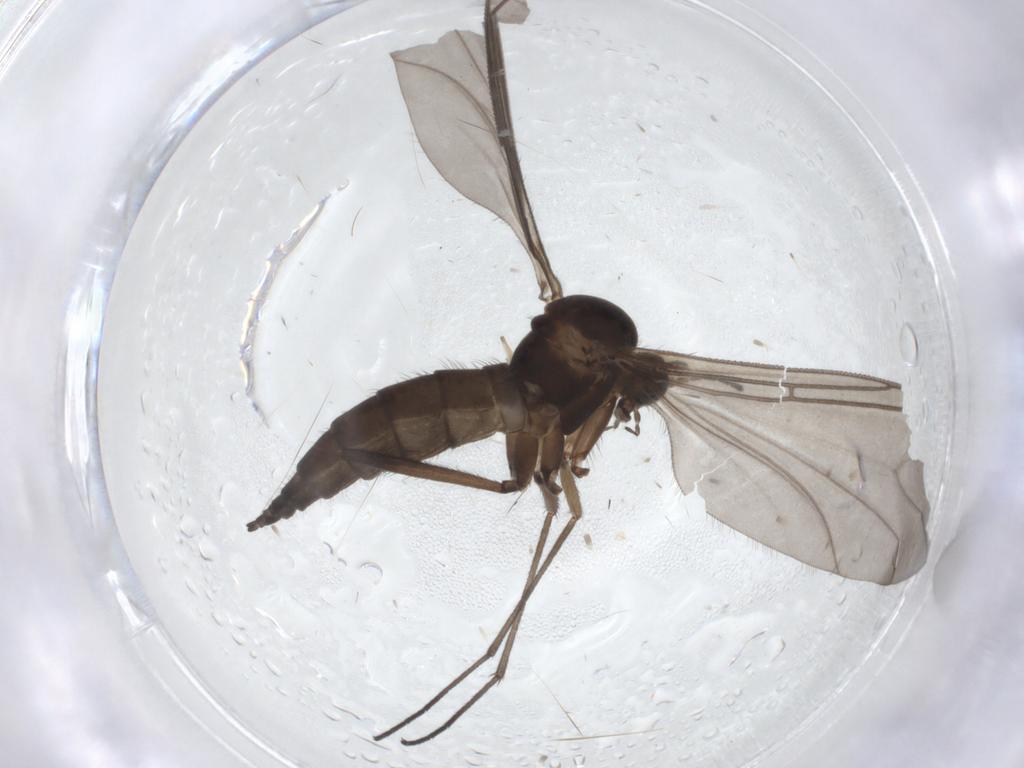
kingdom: Animalia
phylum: Arthropoda
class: Insecta
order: Diptera
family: Sciaridae
